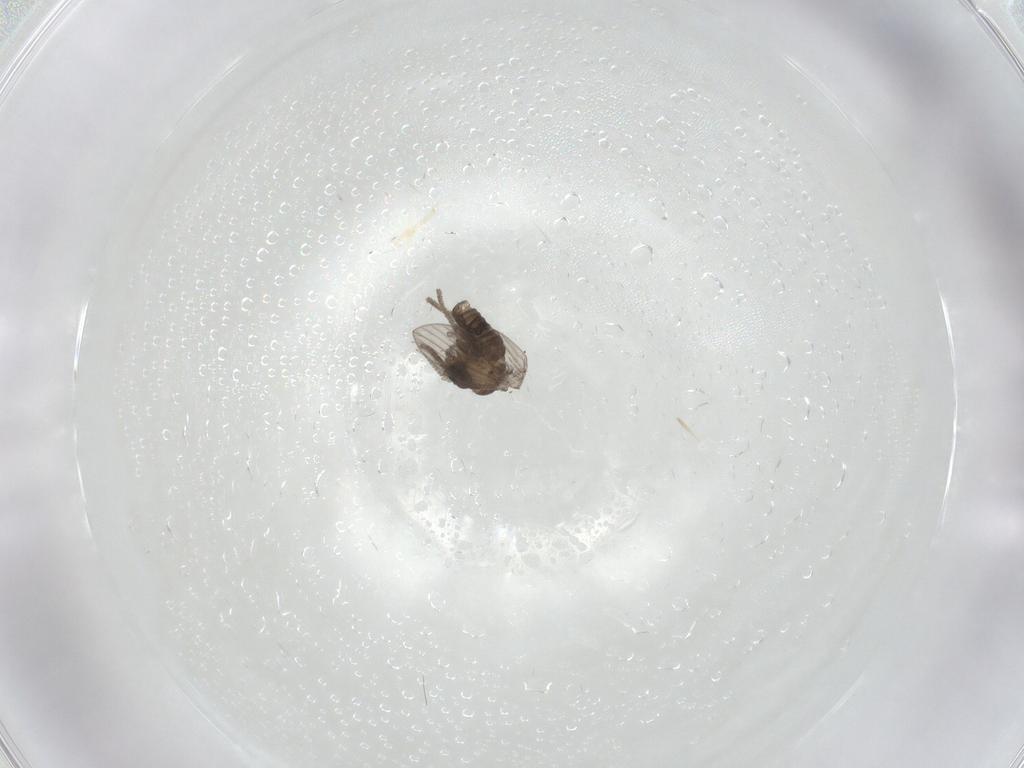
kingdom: Animalia
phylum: Arthropoda
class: Insecta
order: Diptera
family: Psychodidae
